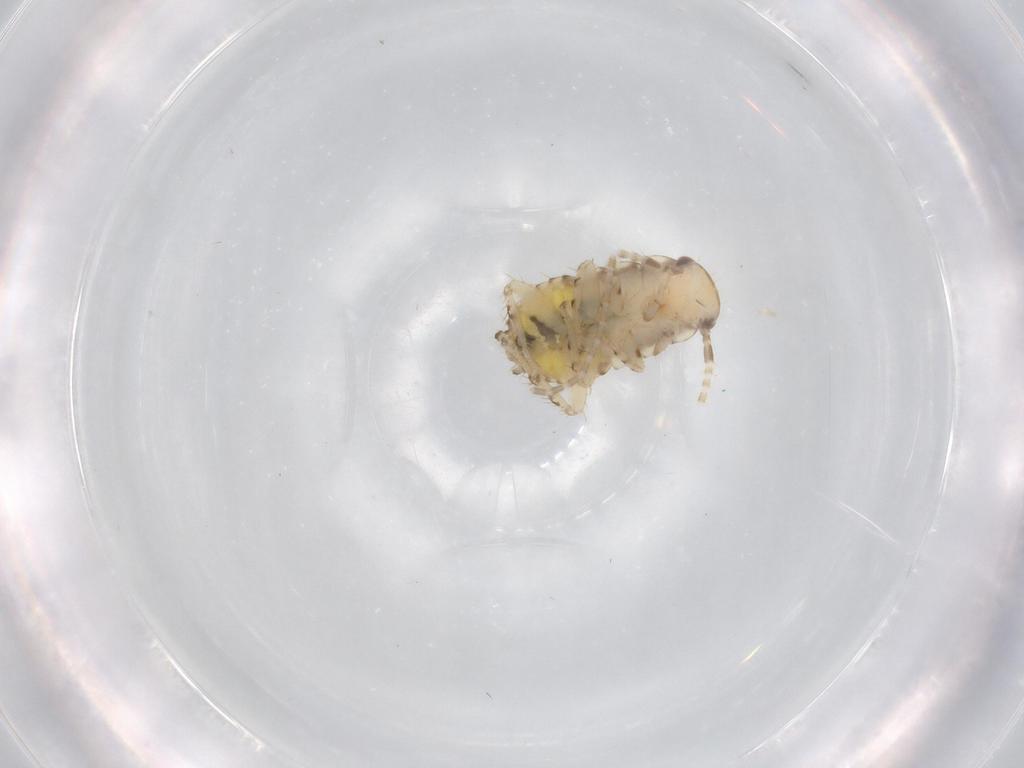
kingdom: Animalia
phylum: Arthropoda
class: Insecta
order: Blattodea
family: Ectobiidae
